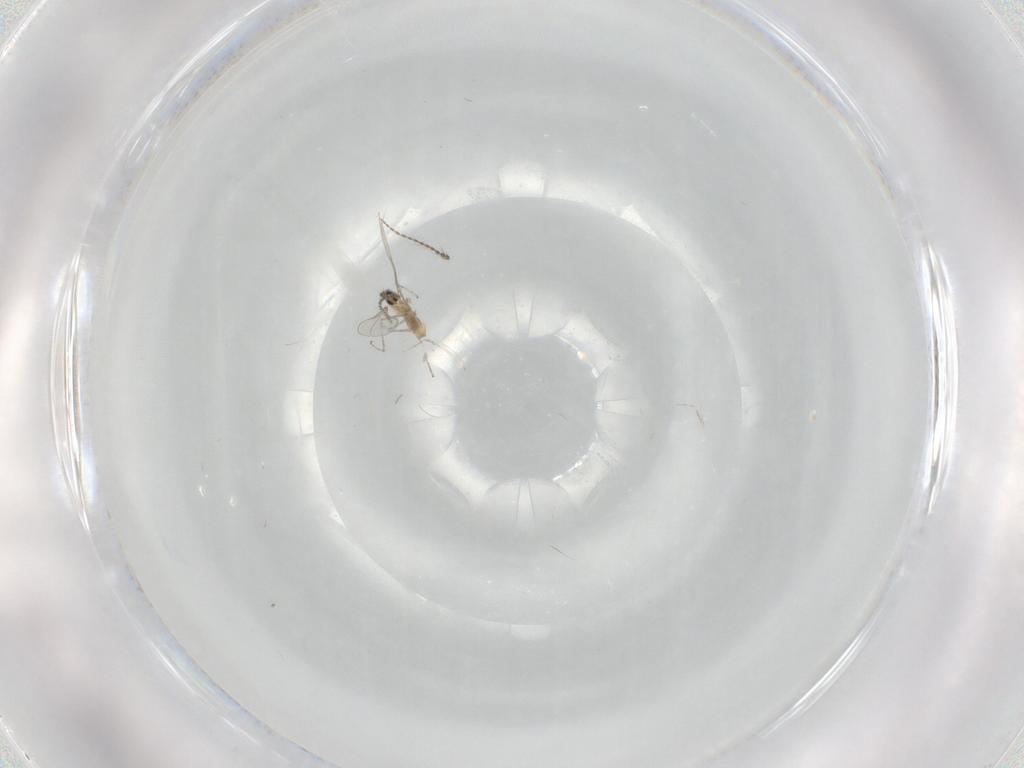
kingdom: Animalia
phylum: Arthropoda
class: Insecta
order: Diptera
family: Cecidomyiidae
